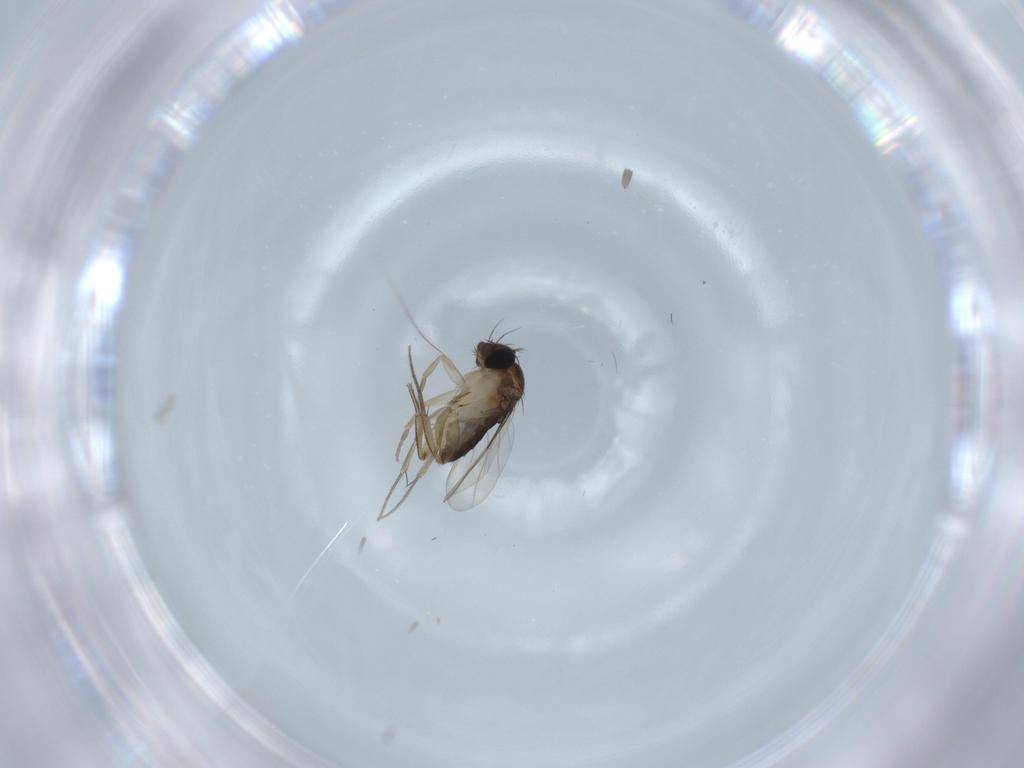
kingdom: Animalia
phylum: Arthropoda
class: Insecta
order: Diptera
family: Phoridae
